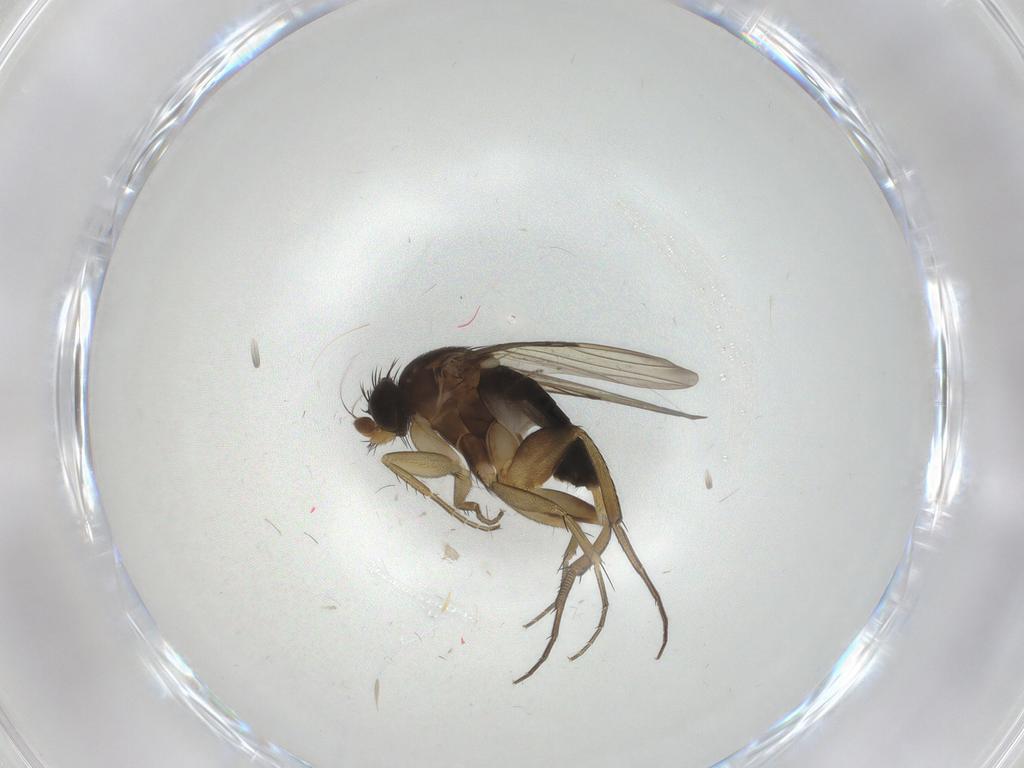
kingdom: Animalia
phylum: Arthropoda
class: Insecta
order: Diptera
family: Phoridae
